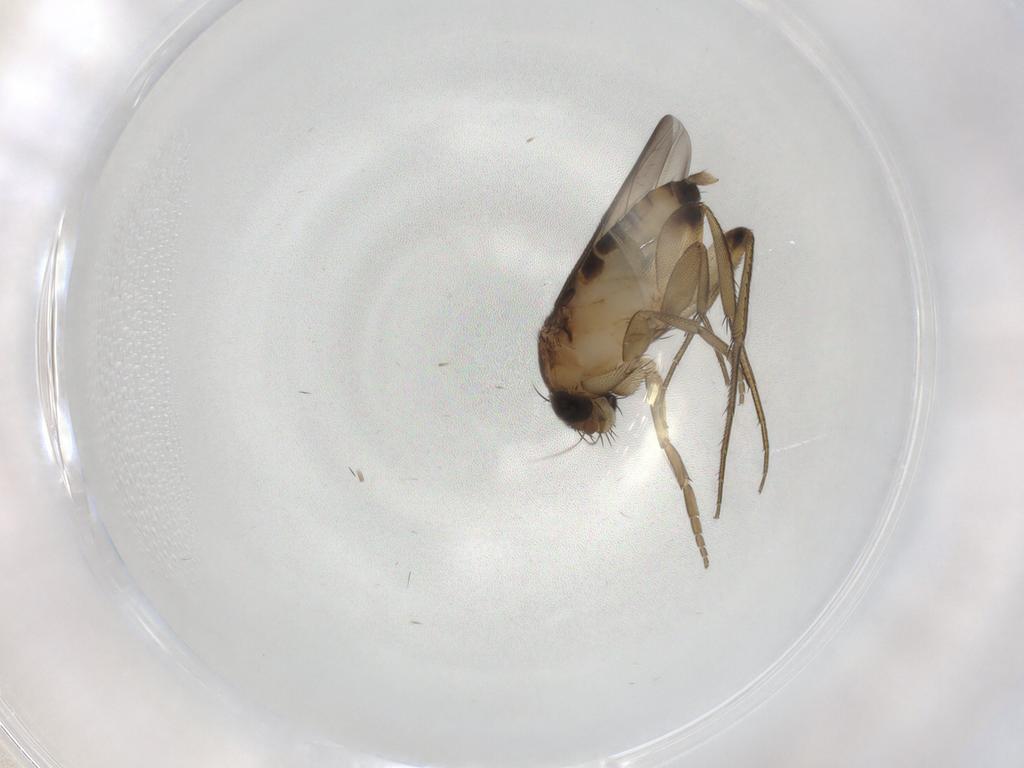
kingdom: Animalia
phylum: Arthropoda
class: Insecta
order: Diptera
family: Phoridae
